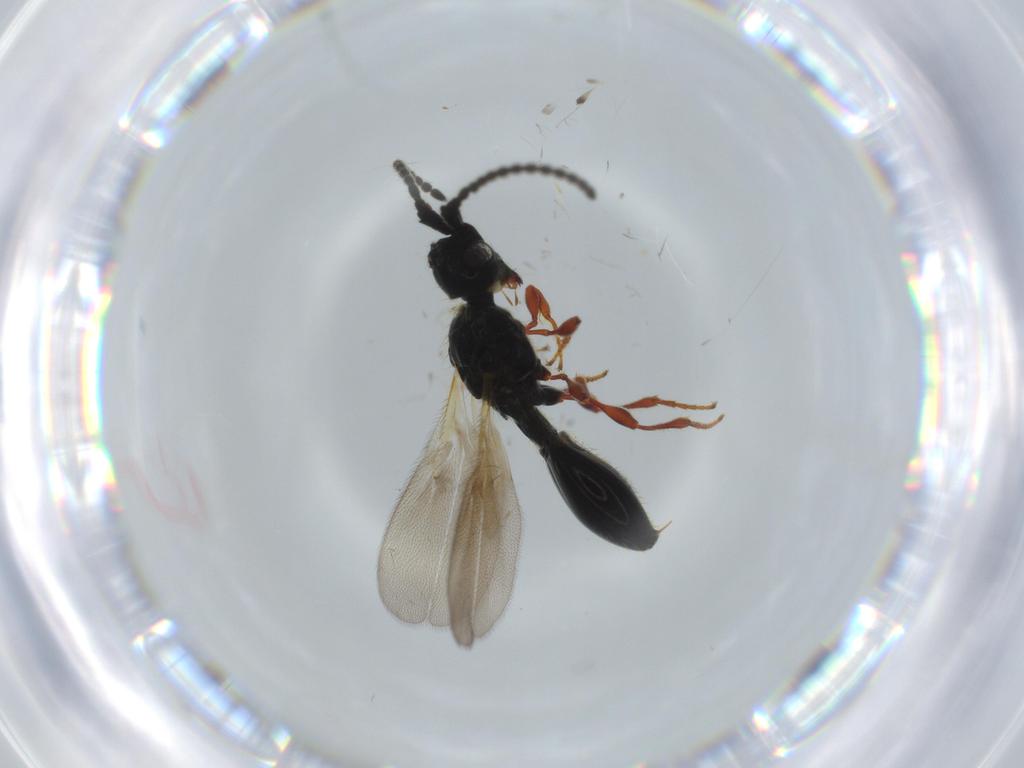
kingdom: Animalia
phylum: Arthropoda
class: Insecta
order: Hymenoptera
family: Diapriidae
